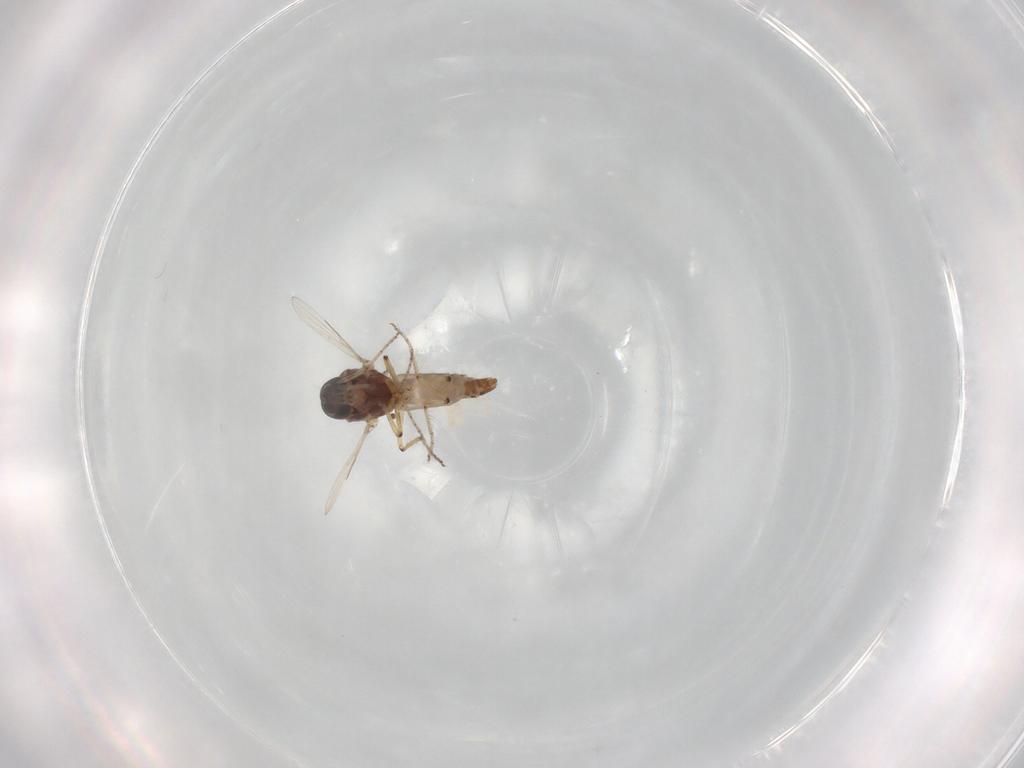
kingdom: Animalia
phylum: Arthropoda
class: Insecta
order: Diptera
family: Ceratopogonidae
